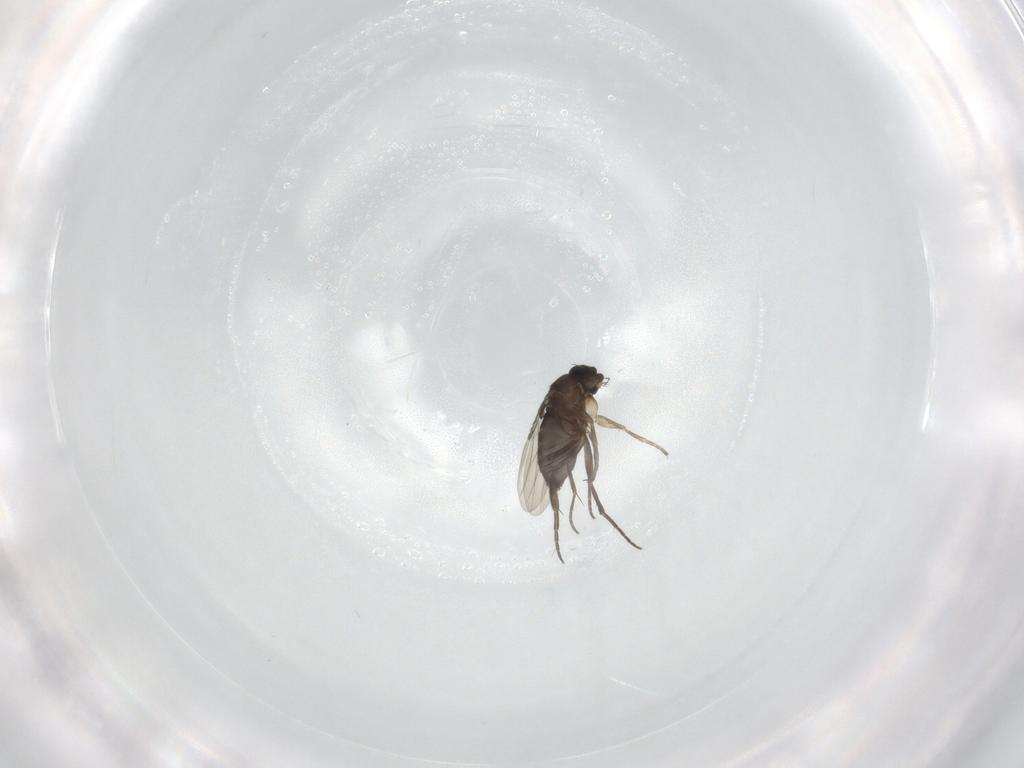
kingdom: Animalia
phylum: Arthropoda
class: Insecta
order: Diptera
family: Phoridae
